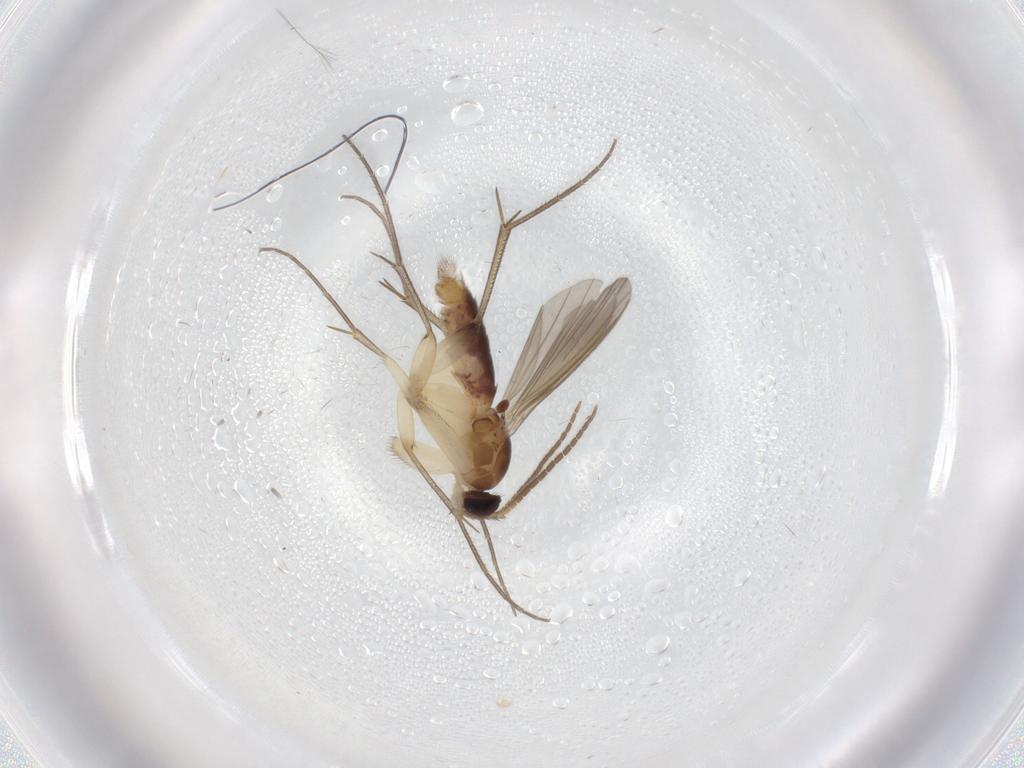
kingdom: Animalia
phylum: Arthropoda
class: Insecta
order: Diptera
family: Mycetophilidae
